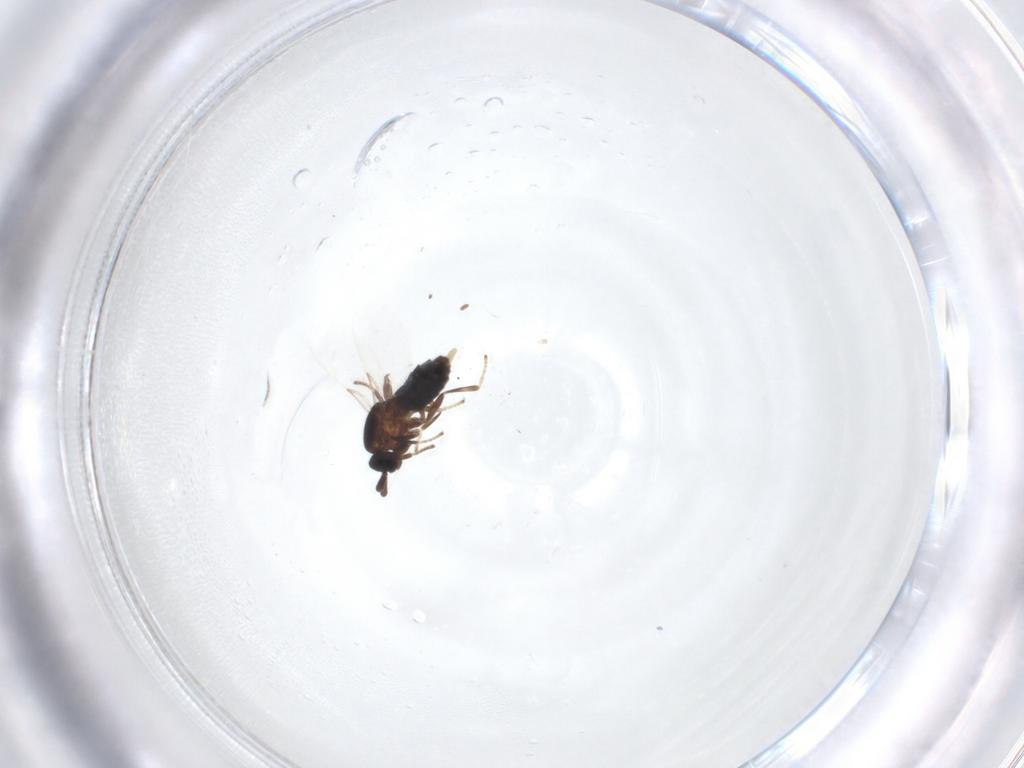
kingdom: Animalia
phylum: Arthropoda
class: Insecta
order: Diptera
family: Scatopsidae
